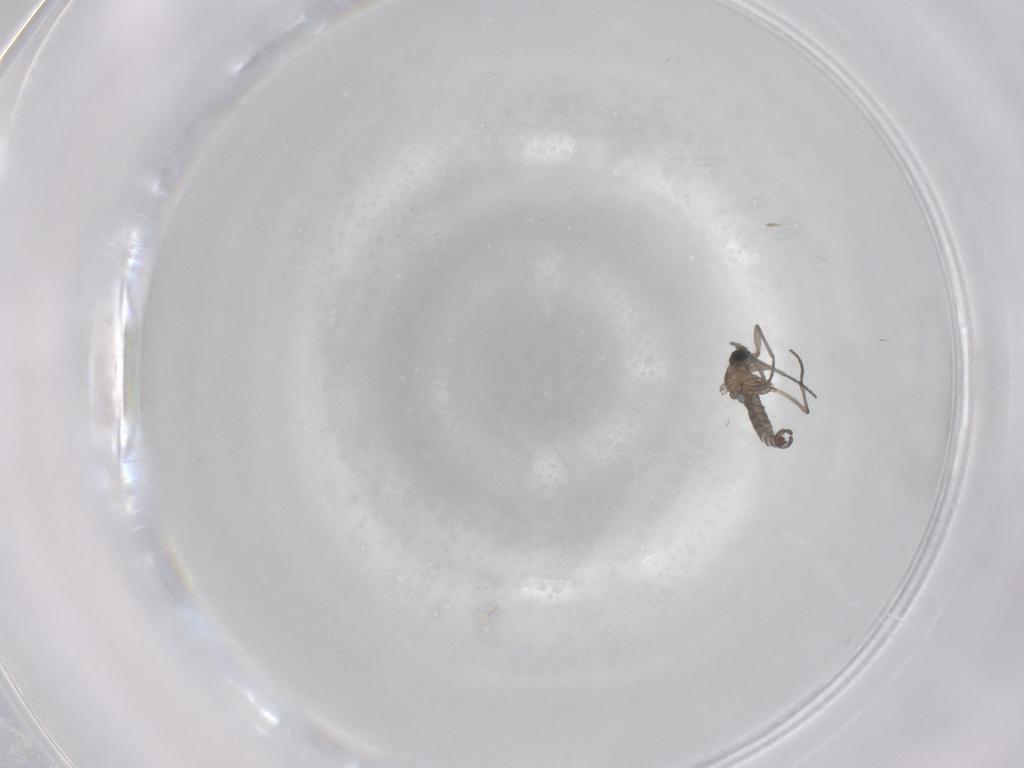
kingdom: Animalia
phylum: Arthropoda
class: Insecta
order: Diptera
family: Sciaridae
